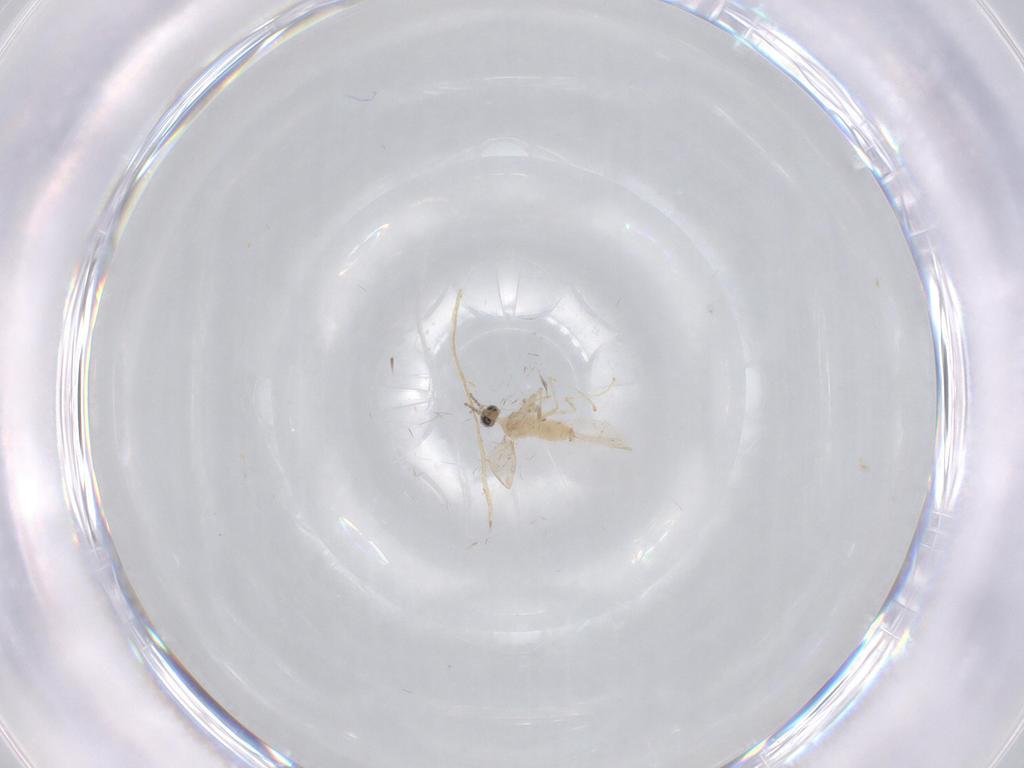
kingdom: Animalia
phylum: Arthropoda
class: Insecta
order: Diptera
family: Cecidomyiidae
